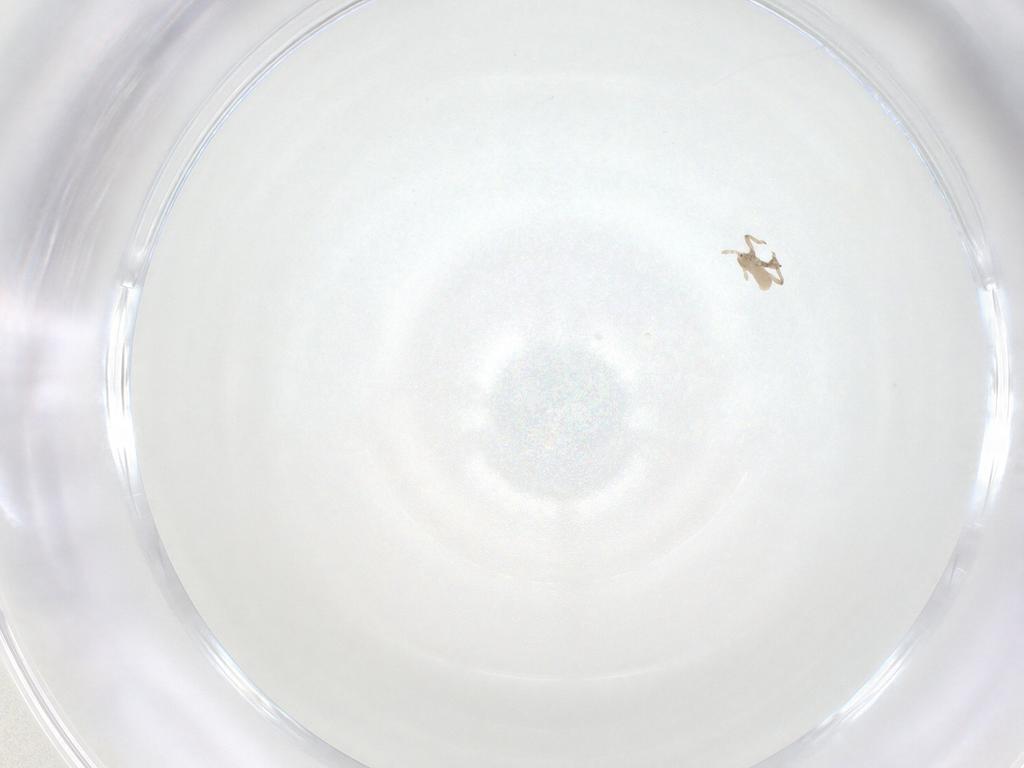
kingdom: Animalia
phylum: Arthropoda
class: Insecta
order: Hemiptera
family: Aphididae
